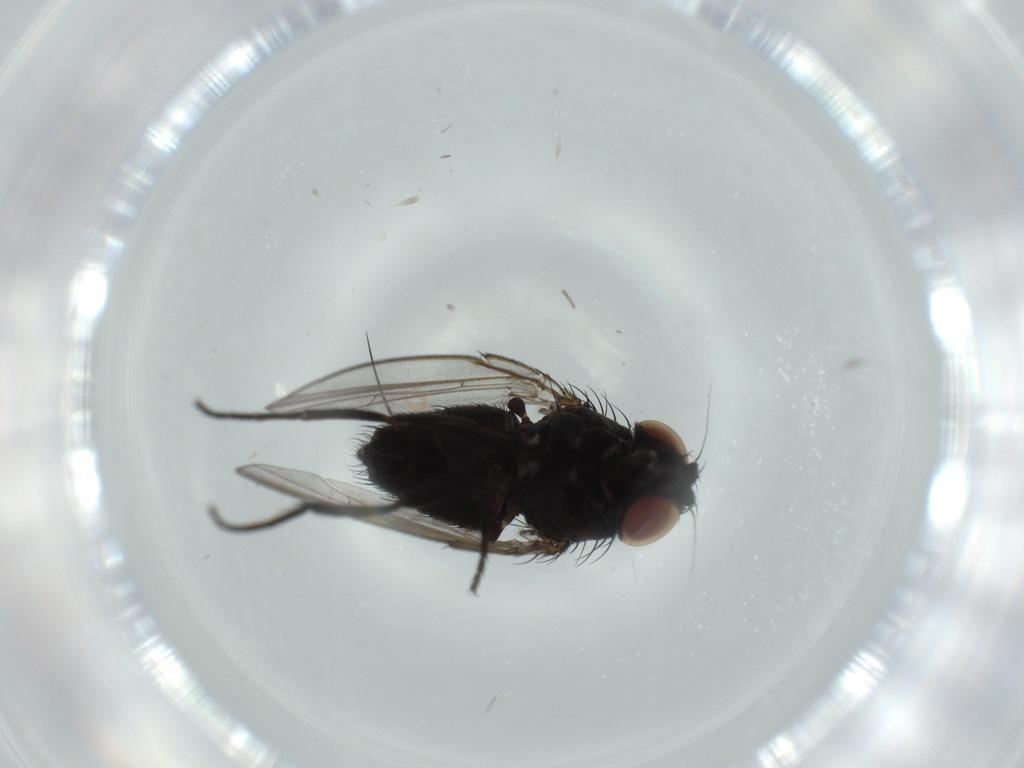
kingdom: Animalia
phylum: Arthropoda
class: Insecta
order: Diptera
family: Milichiidae
